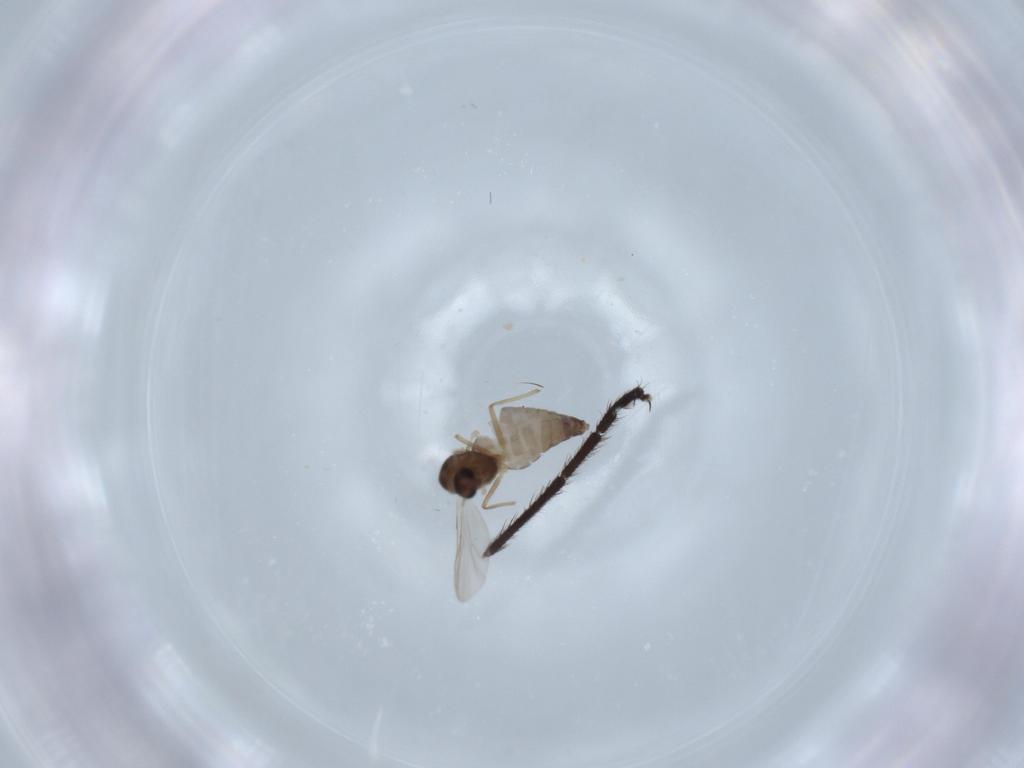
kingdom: Animalia
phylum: Arthropoda
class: Insecta
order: Diptera
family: Chironomidae
